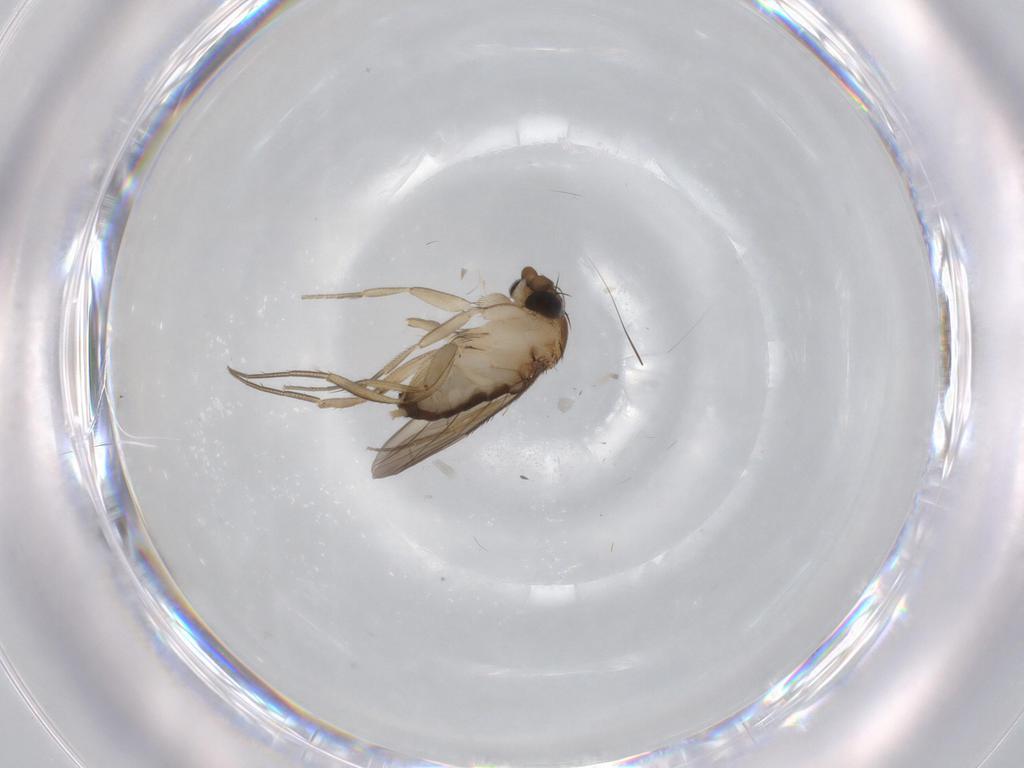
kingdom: Animalia
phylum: Arthropoda
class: Insecta
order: Diptera
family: Phoridae
